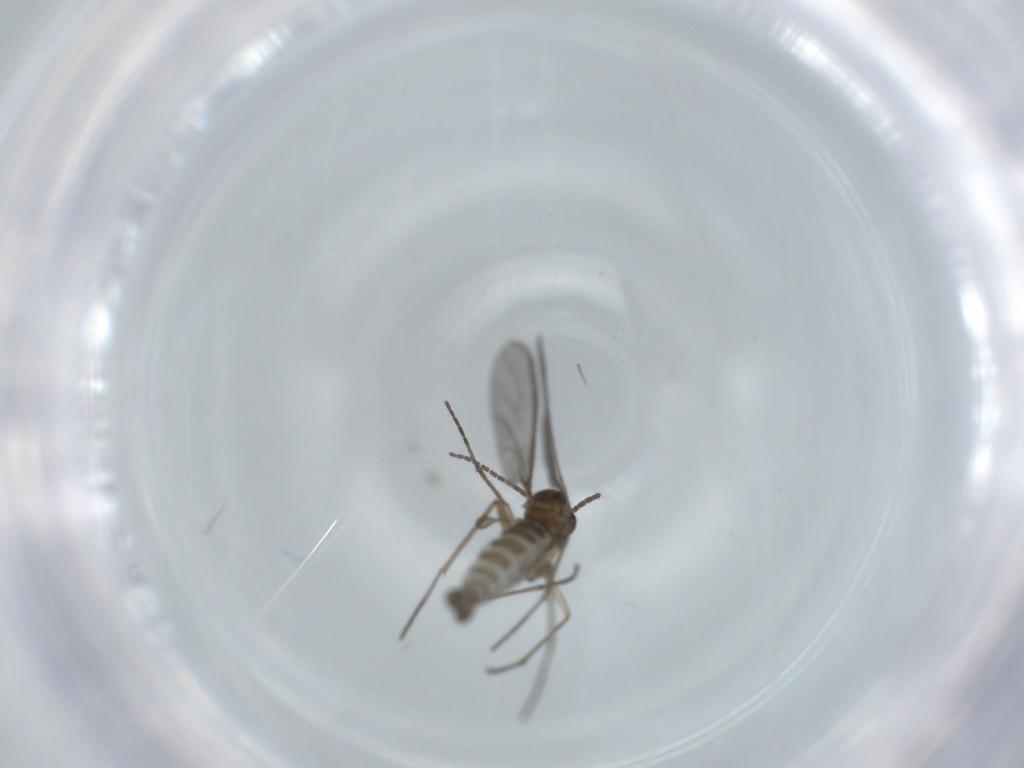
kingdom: Animalia
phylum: Arthropoda
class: Insecta
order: Diptera
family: Sciaridae
